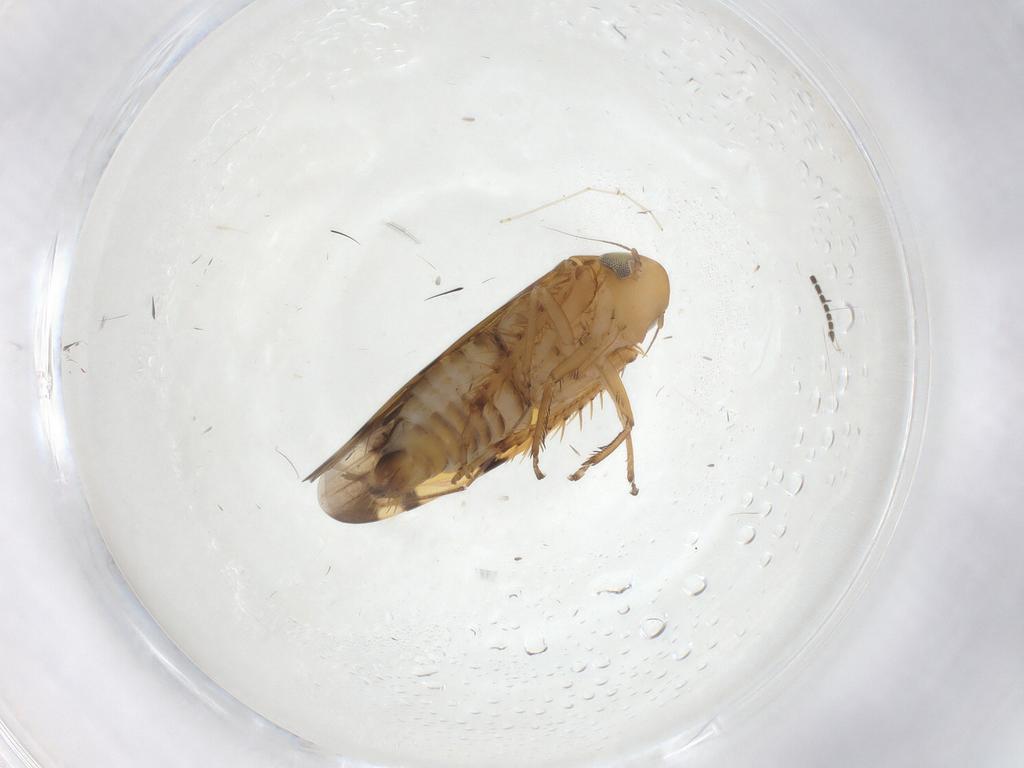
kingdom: Animalia
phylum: Arthropoda
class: Insecta
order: Hemiptera
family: Cicadellidae
